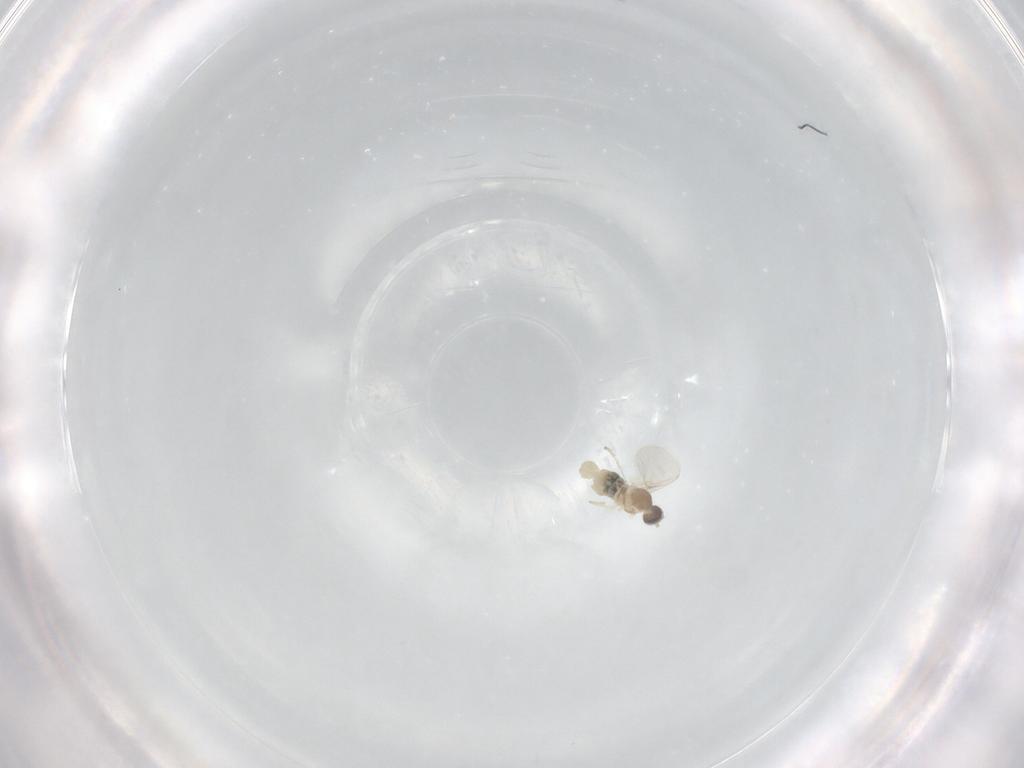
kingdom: Animalia
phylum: Arthropoda
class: Insecta
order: Diptera
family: Cecidomyiidae
